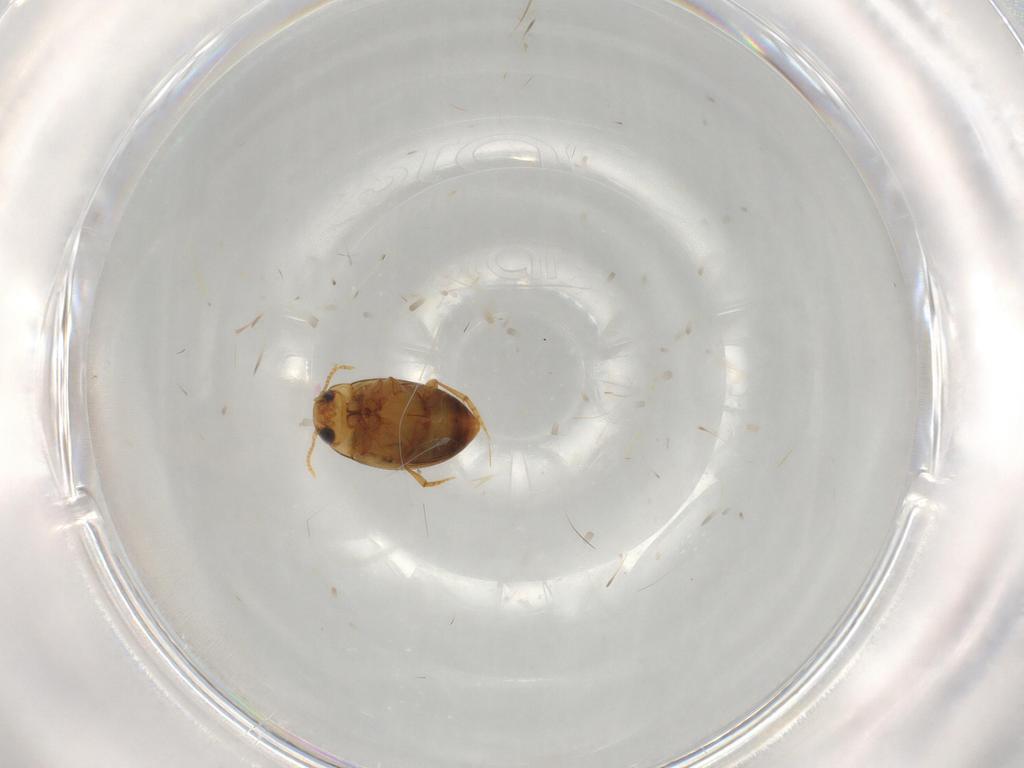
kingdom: Animalia
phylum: Arthropoda
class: Insecta
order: Coleoptera
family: Dytiscidae
